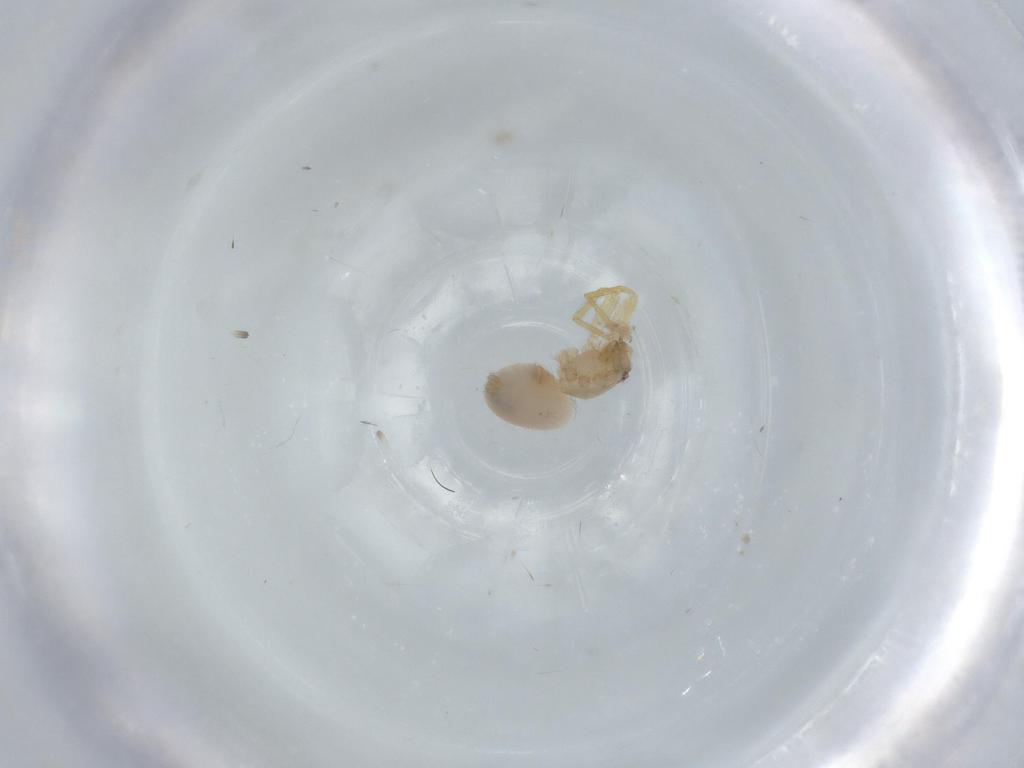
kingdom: Animalia
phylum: Arthropoda
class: Arachnida
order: Araneae
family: Oonopidae
